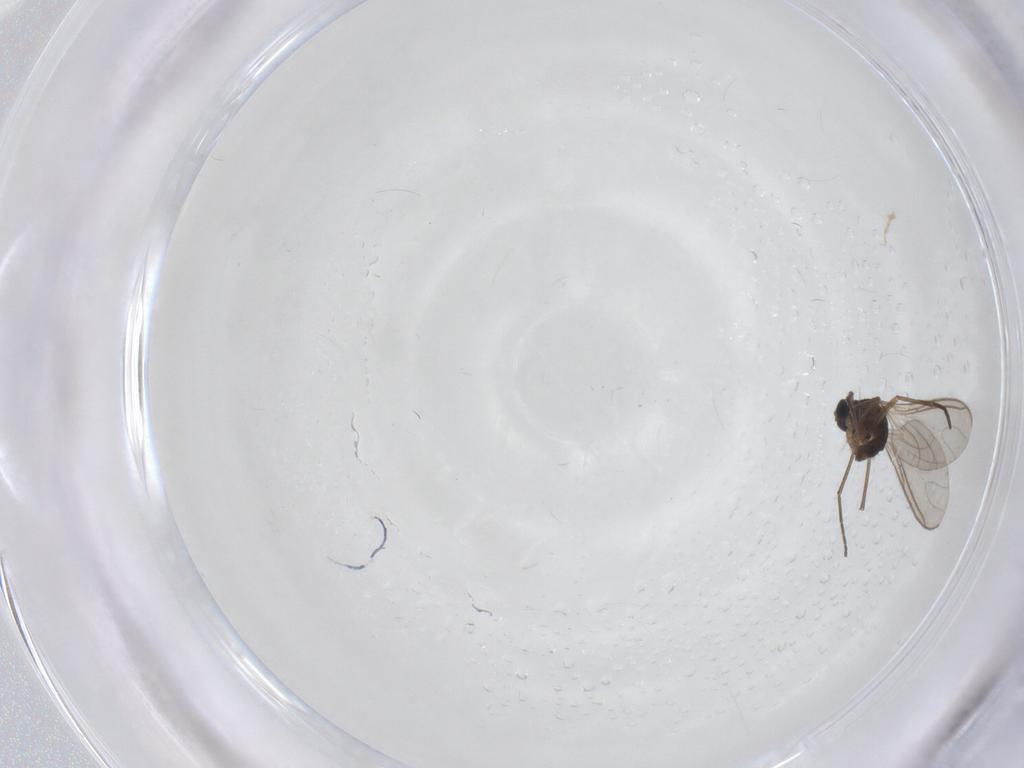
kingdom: Animalia
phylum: Arthropoda
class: Insecta
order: Diptera
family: Sciaridae
